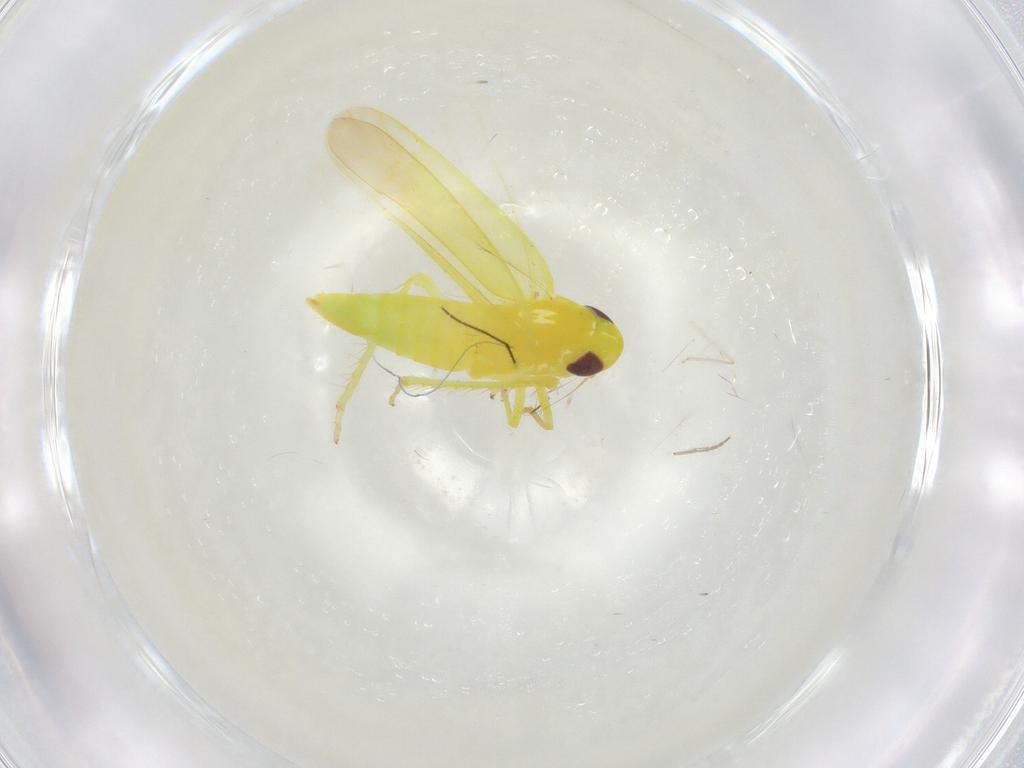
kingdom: Animalia
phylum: Arthropoda
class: Insecta
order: Hemiptera
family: Cicadellidae
